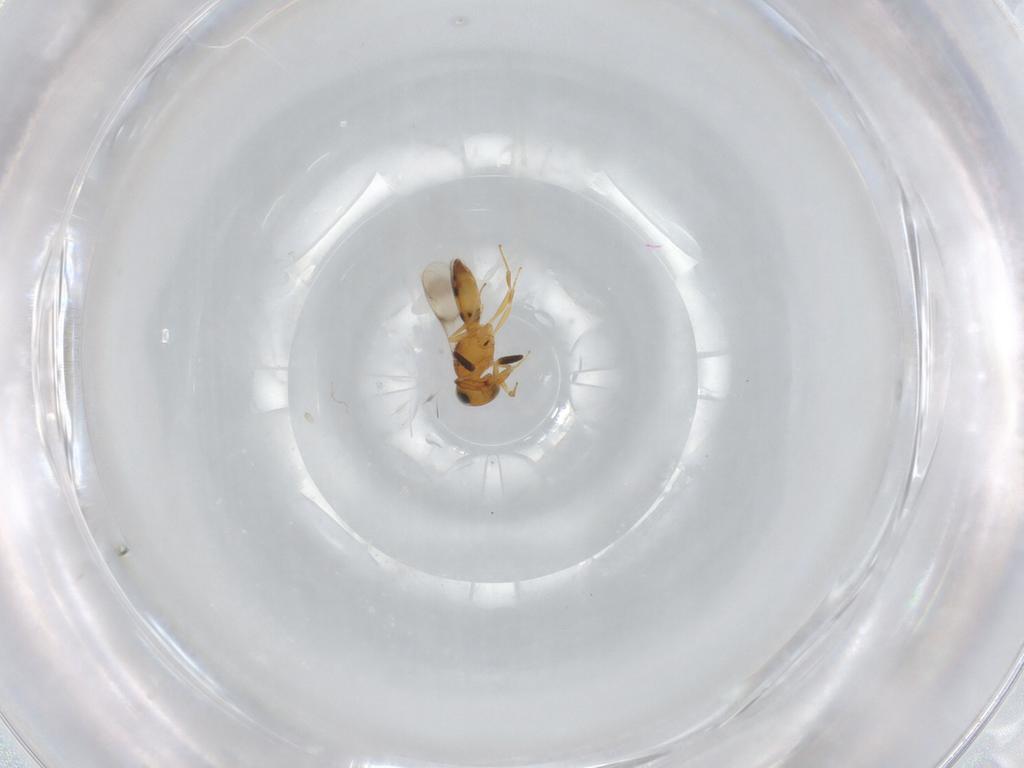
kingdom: Animalia
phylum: Arthropoda
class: Insecta
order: Hymenoptera
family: Scelionidae
